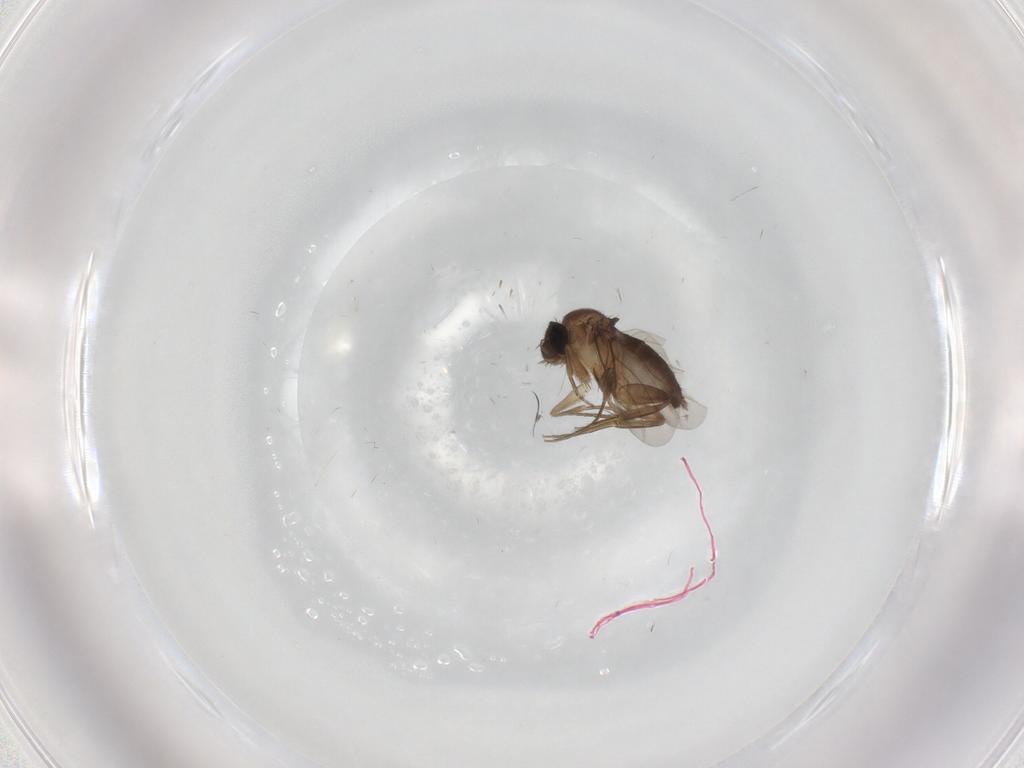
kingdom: Animalia
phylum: Arthropoda
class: Insecta
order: Diptera
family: Phoridae
